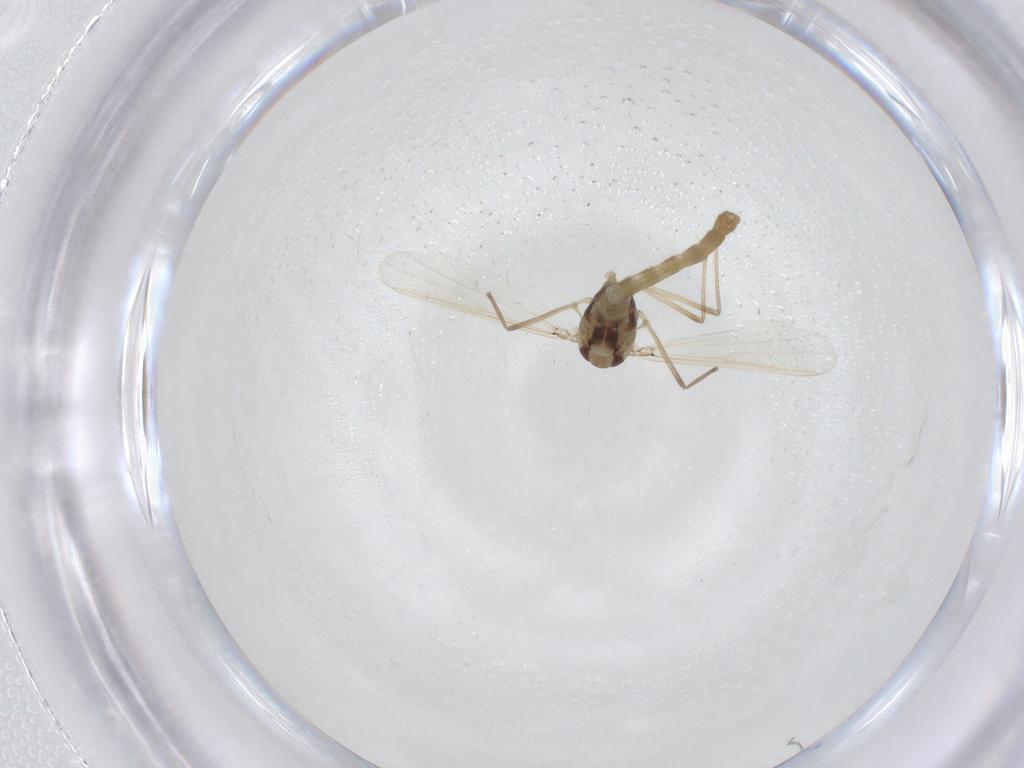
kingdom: Animalia
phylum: Arthropoda
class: Insecta
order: Diptera
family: Chironomidae
